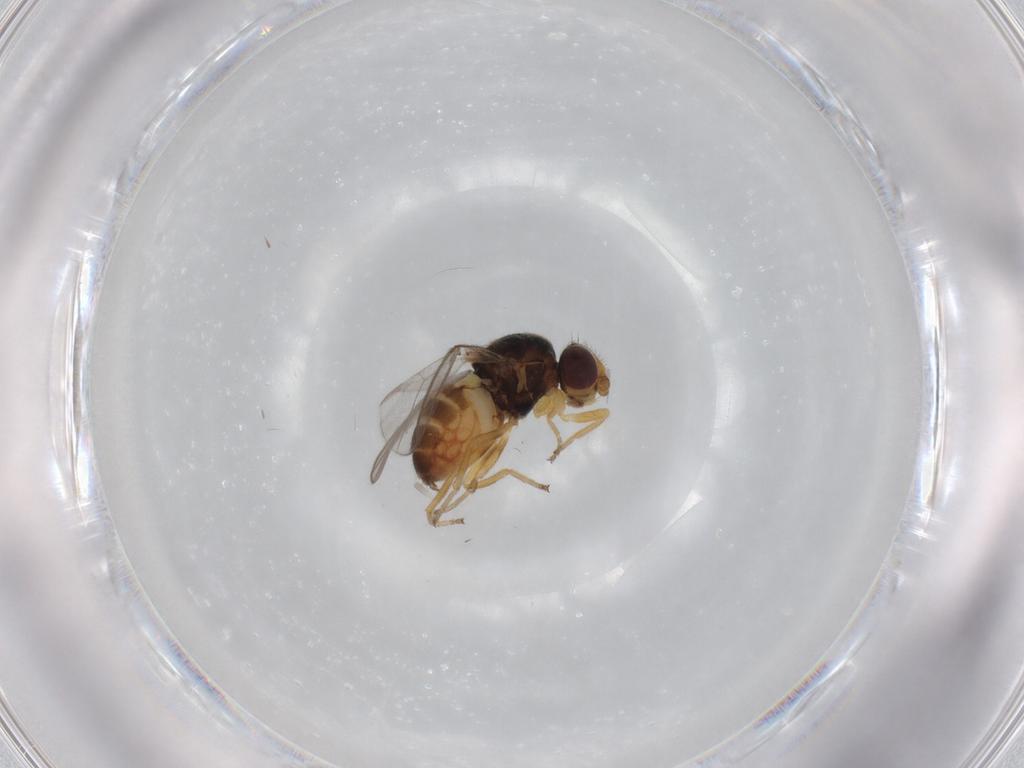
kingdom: Animalia
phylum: Arthropoda
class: Insecta
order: Diptera
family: Chloropidae
